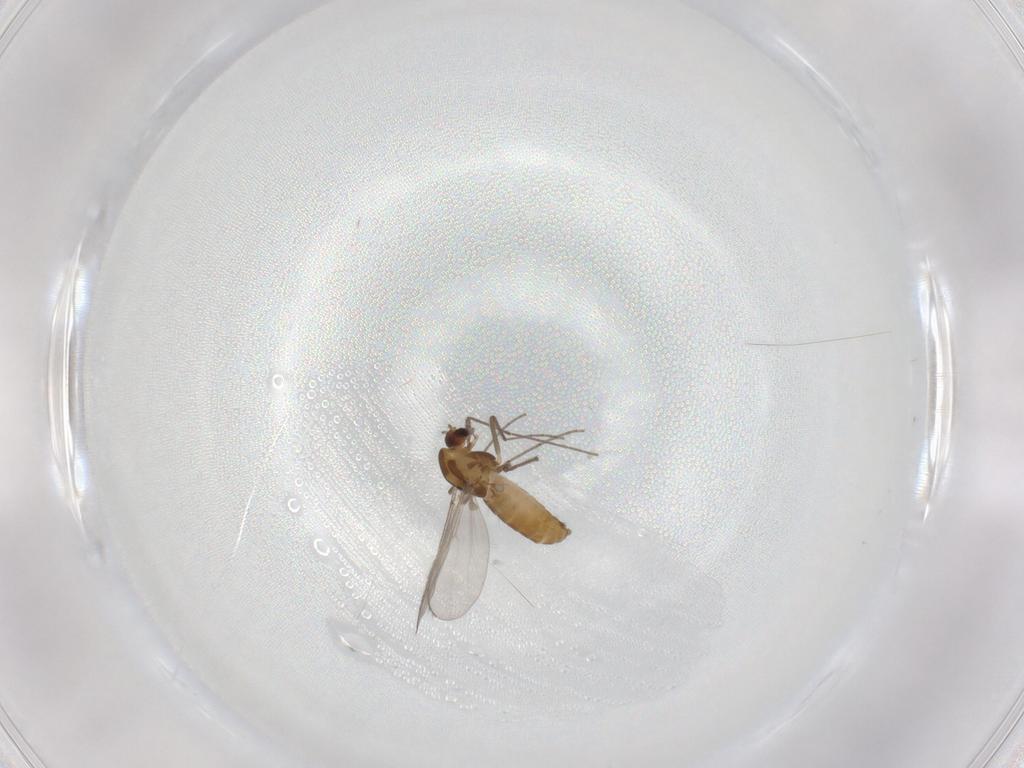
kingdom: Animalia
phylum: Arthropoda
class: Insecta
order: Diptera
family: Chironomidae
